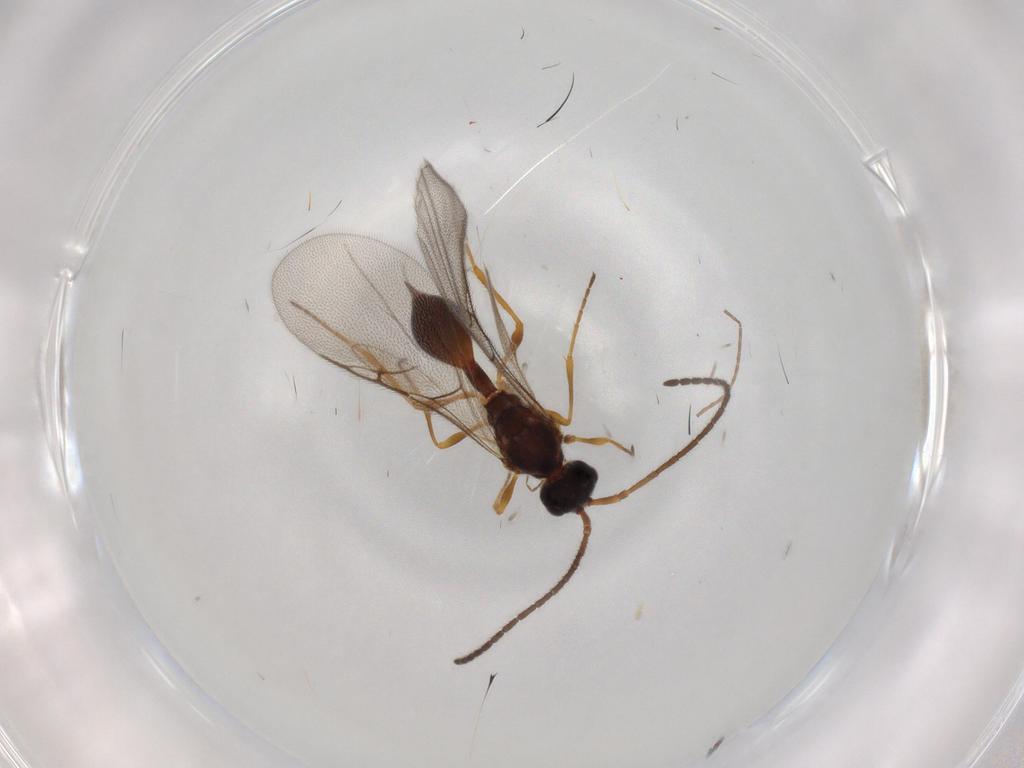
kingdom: Animalia
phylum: Arthropoda
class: Insecta
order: Hymenoptera
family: Diapriidae
